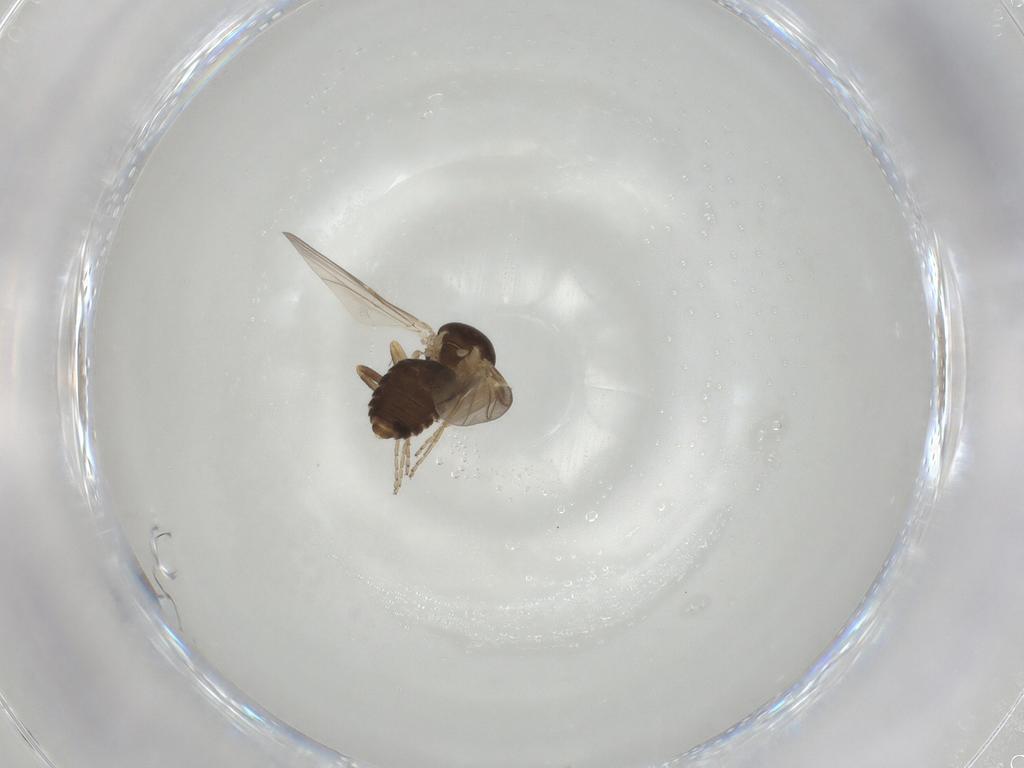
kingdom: Animalia
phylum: Arthropoda
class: Insecta
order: Diptera
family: Ceratopogonidae
